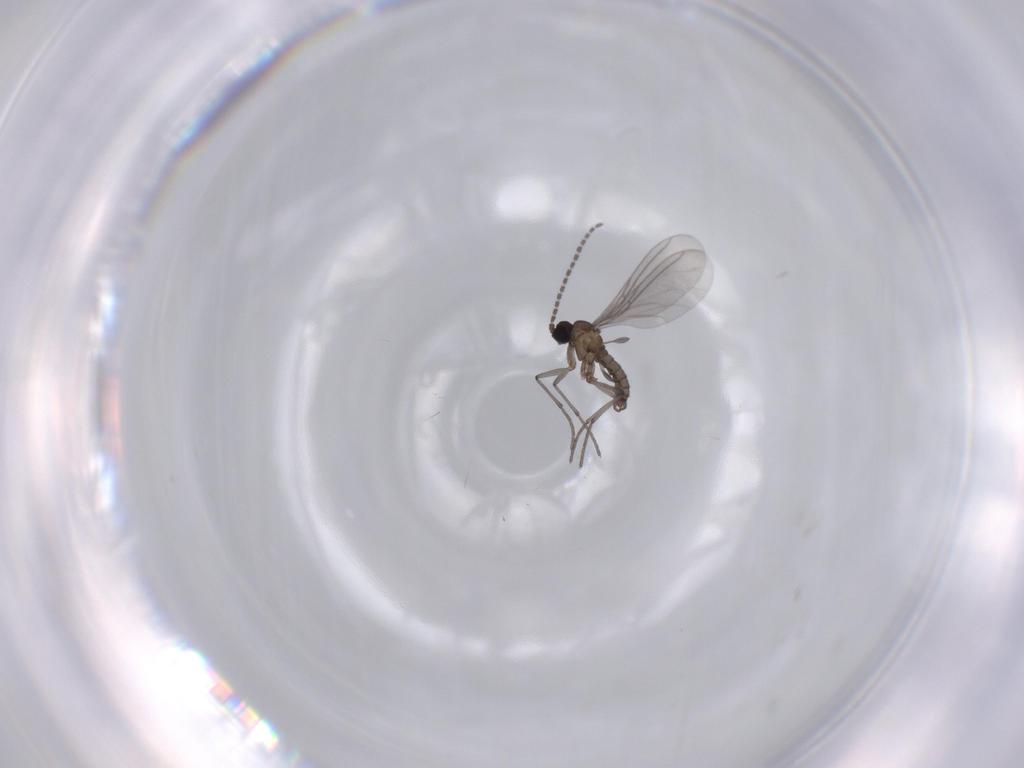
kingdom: Animalia
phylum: Arthropoda
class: Insecta
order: Diptera
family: Sciaridae
